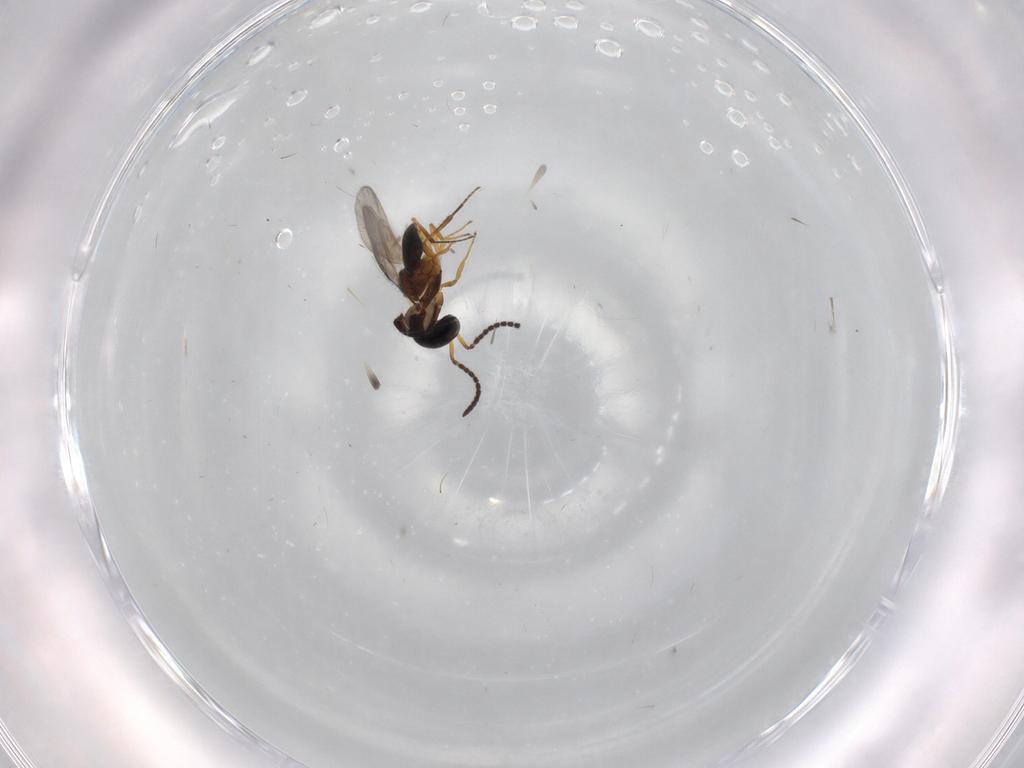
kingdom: Animalia
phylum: Arthropoda
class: Insecta
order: Hymenoptera
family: Scelionidae
